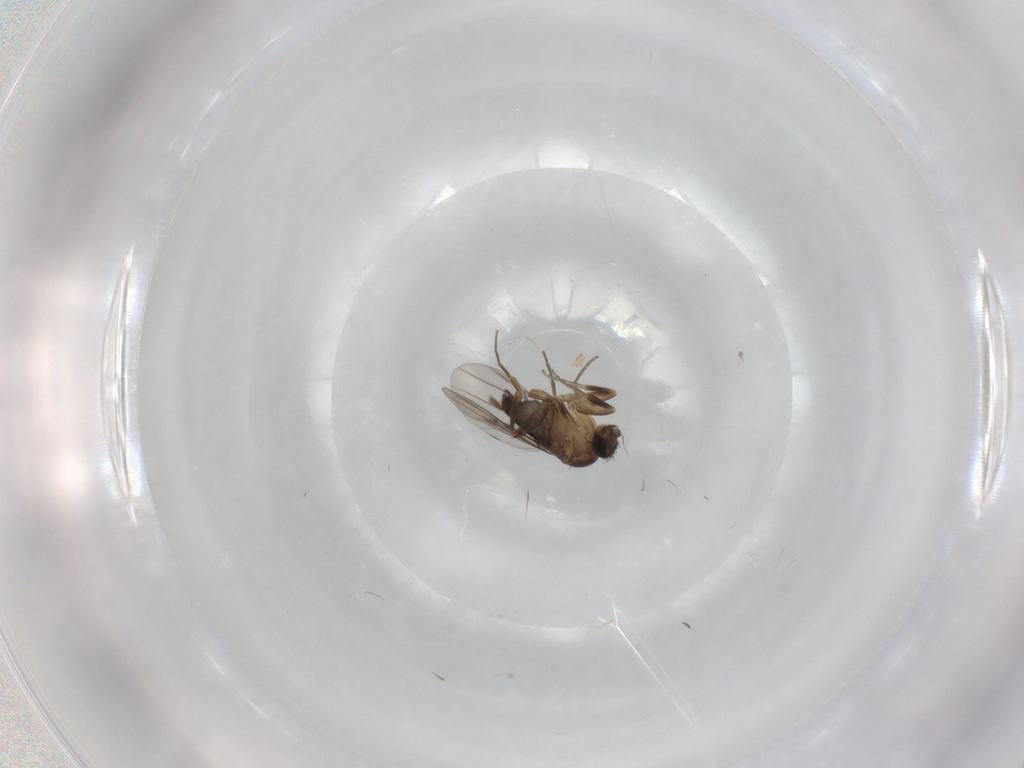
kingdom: Animalia
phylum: Arthropoda
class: Insecta
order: Diptera
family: Phoridae
